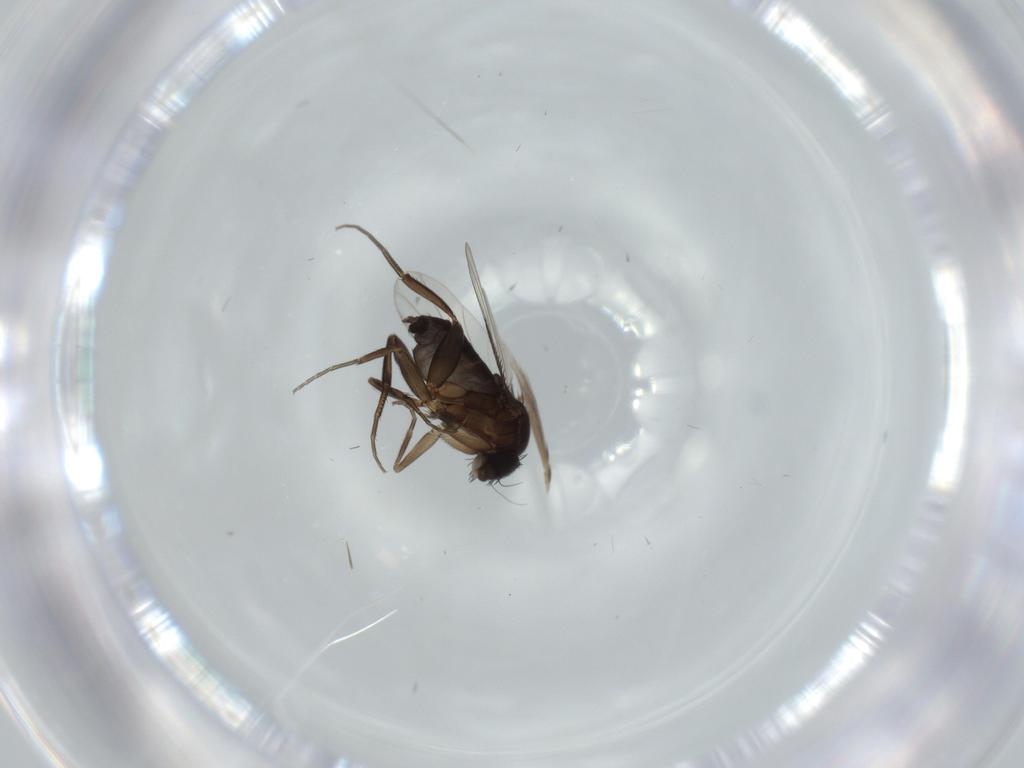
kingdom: Animalia
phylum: Arthropoda
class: Insecta
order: Diptera
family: Phoridae
